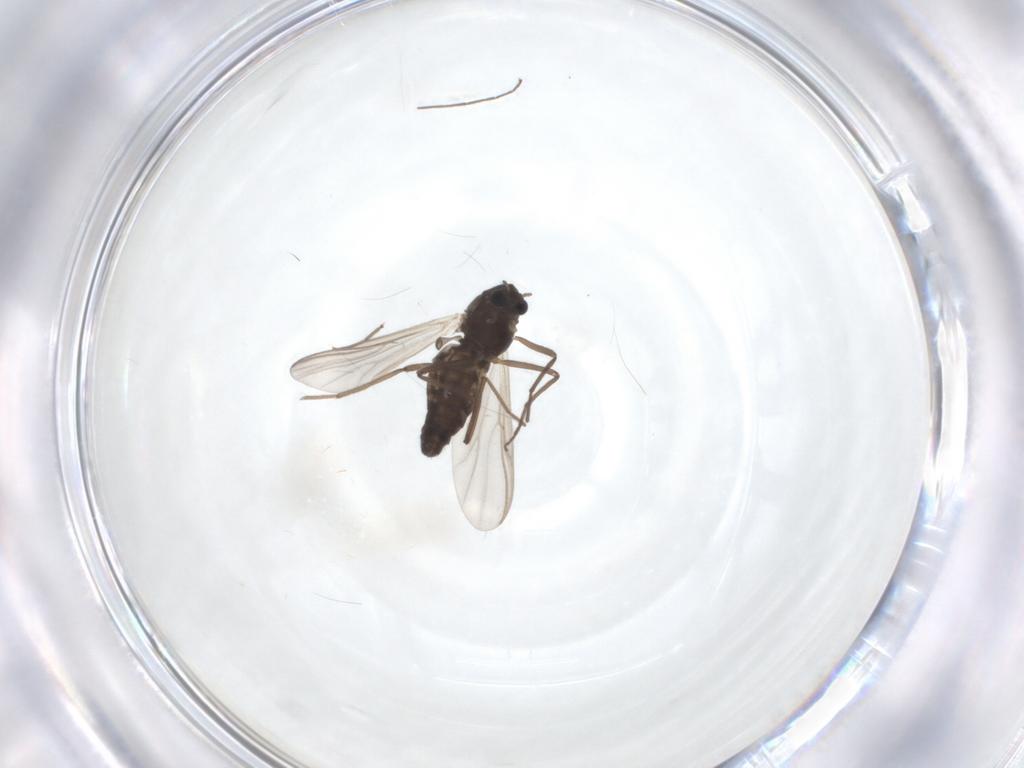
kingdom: Animalia
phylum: Arthropoda
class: Insecta
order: Diptera
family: Chironomidae
